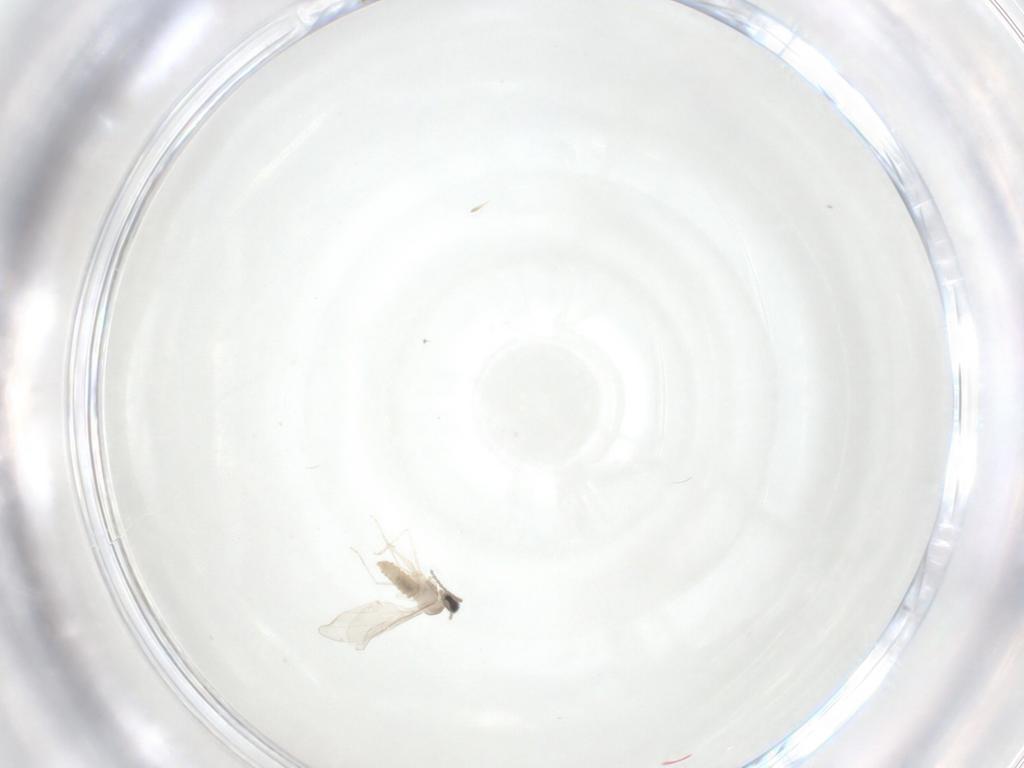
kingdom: Animalia
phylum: Arthropoda
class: Insecta
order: Diptera
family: Cecidomyiidae
